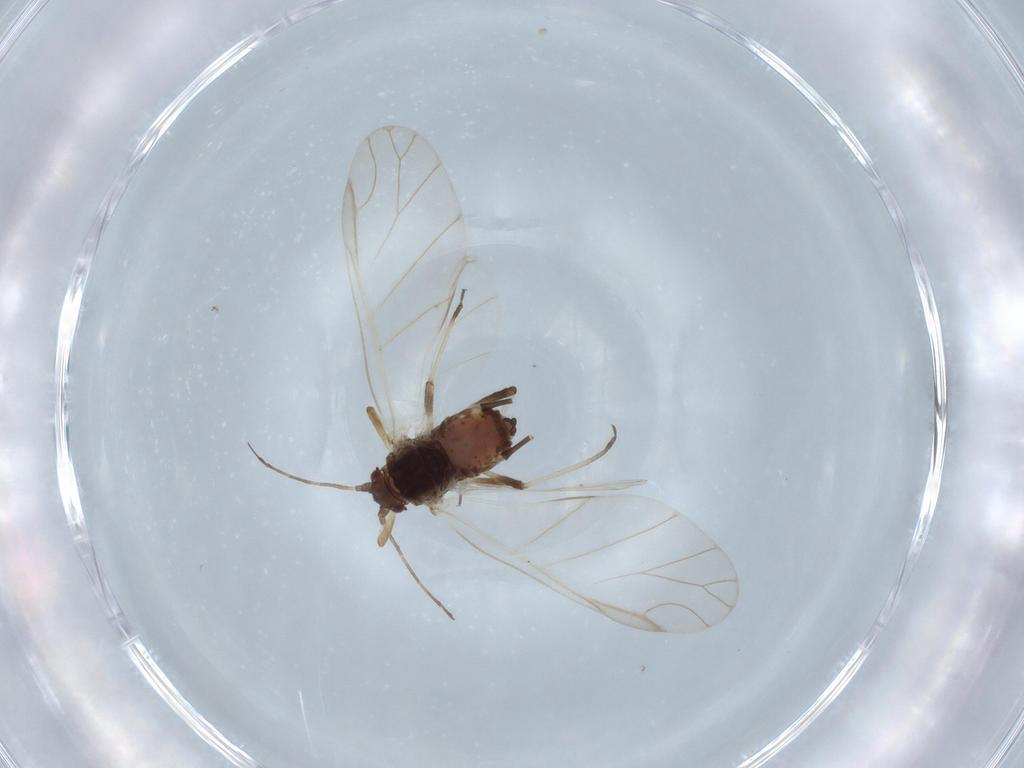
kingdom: Animalia
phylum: Arthropoda
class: Insecta
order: Hemiptera
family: Aphididae
